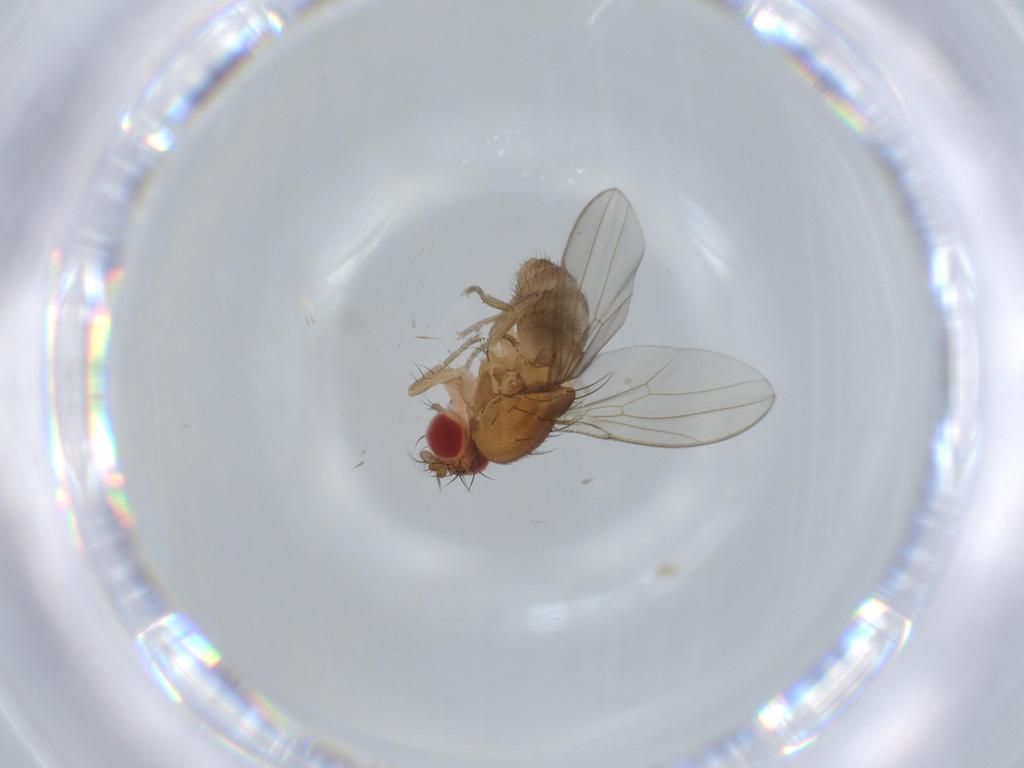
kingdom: Animalia
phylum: Arthropoda
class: Insecta
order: Diptera
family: Drosophilidae
